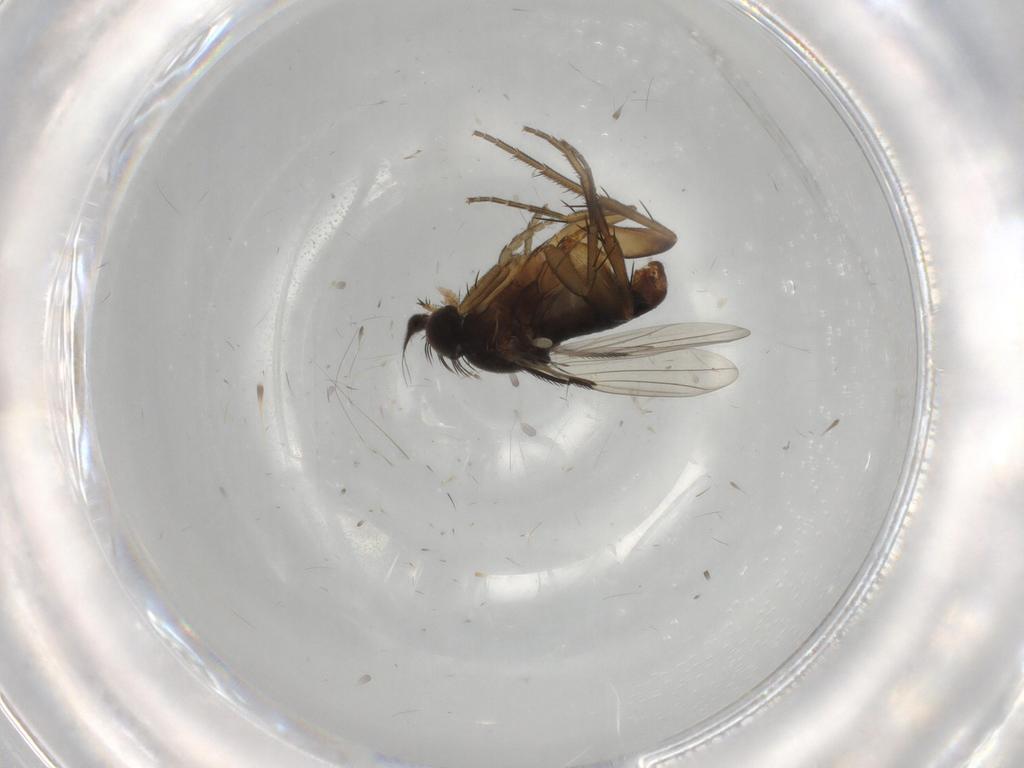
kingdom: Animalia
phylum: Arthropoda
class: Insecta
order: Diptera
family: Phoridae
